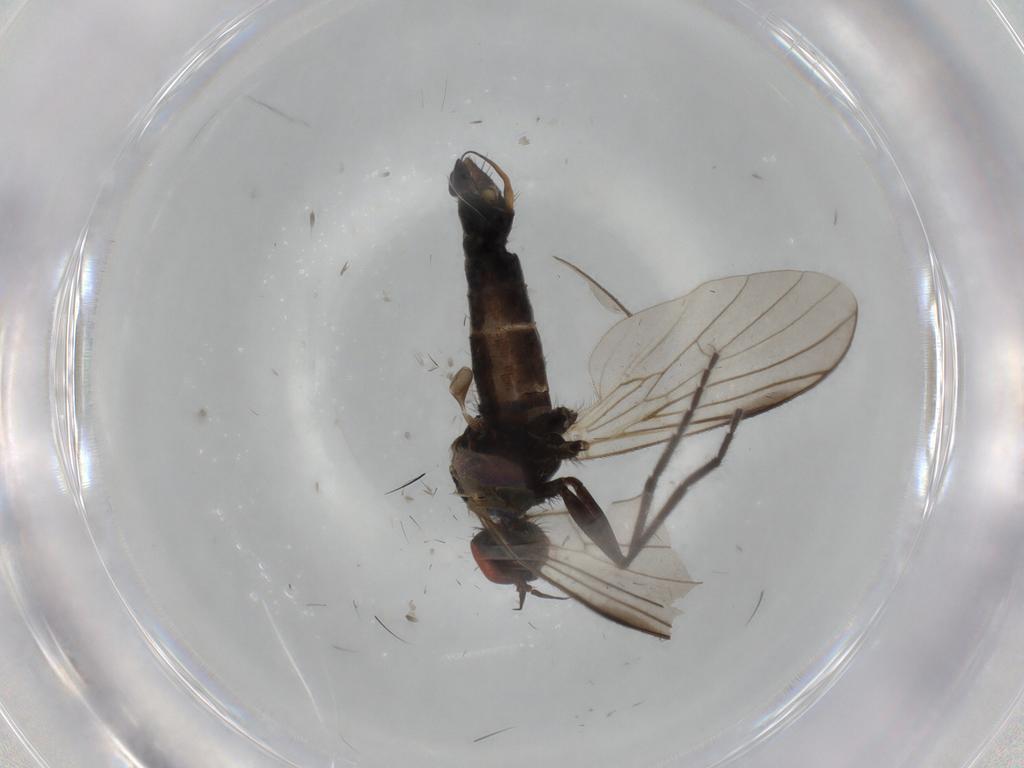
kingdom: Animalia
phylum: Arthropoda
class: Insecta
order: Diptera
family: Empididae
